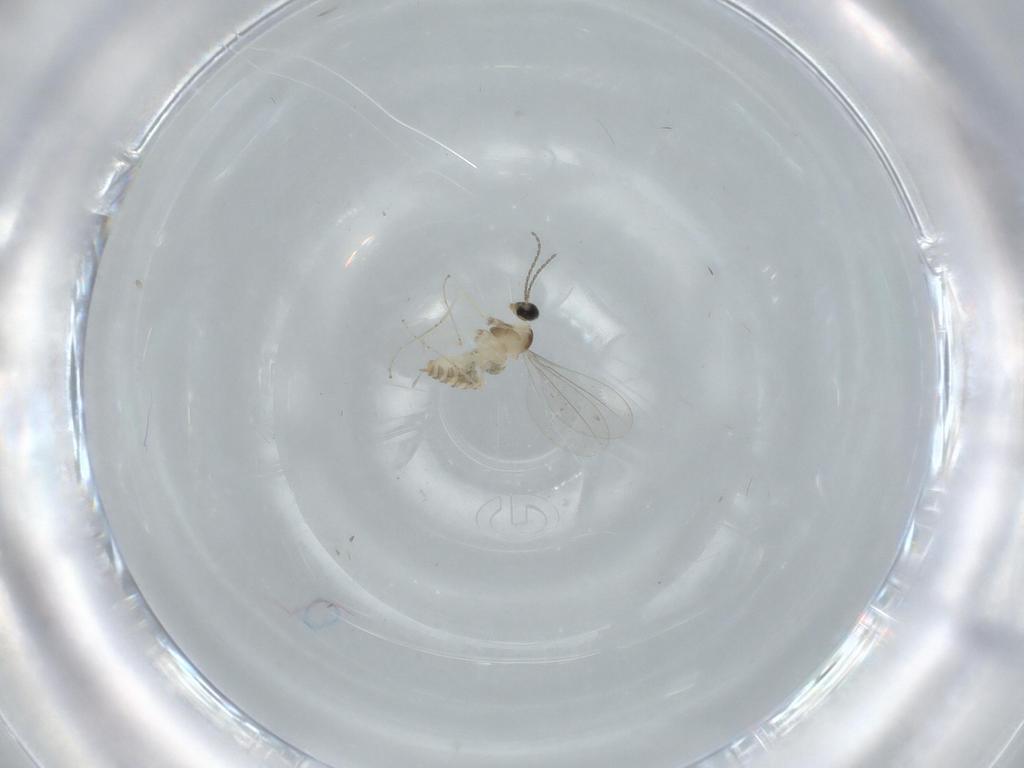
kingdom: Animalia
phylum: Arthropoda
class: Insecta
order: Diptera
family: Cecidomyiidae
